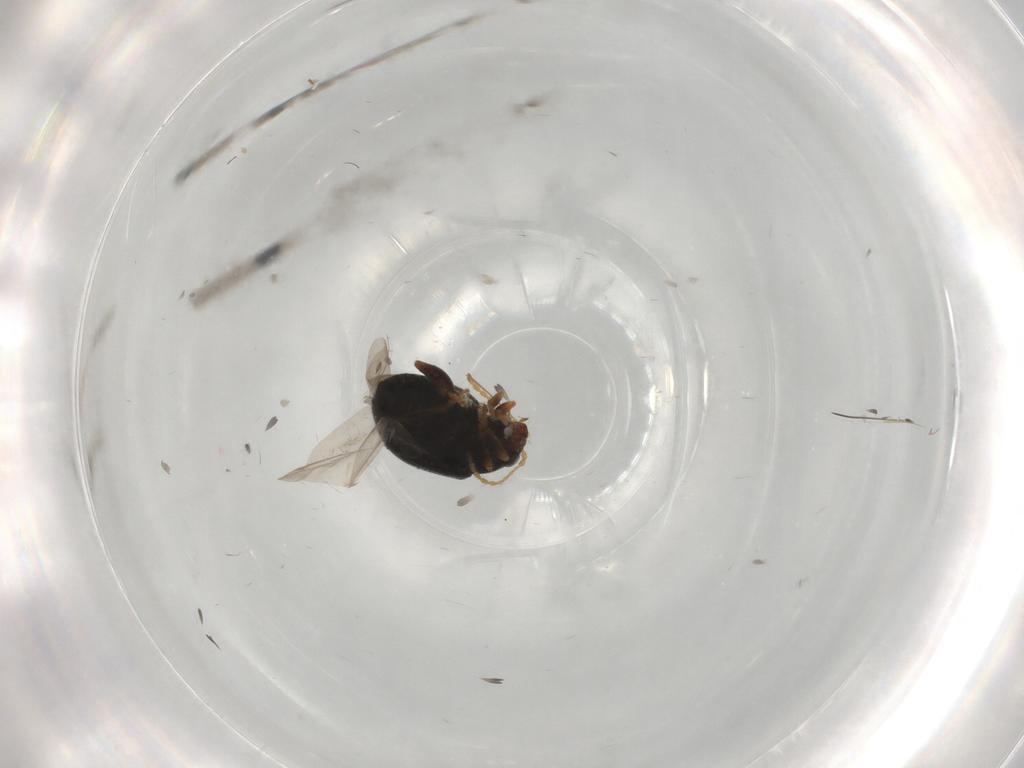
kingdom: Animalia
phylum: Arthropoda
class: Insecta
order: Coleoptera
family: Chrysomelidae
